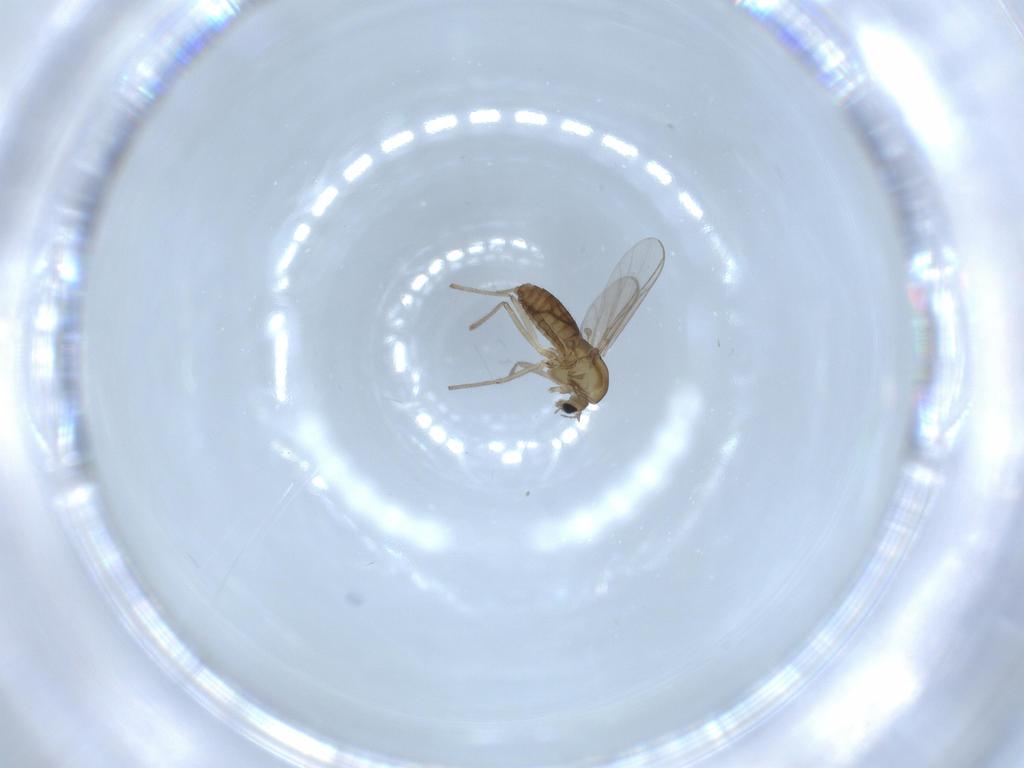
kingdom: Animalia
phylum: Arthropoda
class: Insecta
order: Diptera
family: Chironomidae
